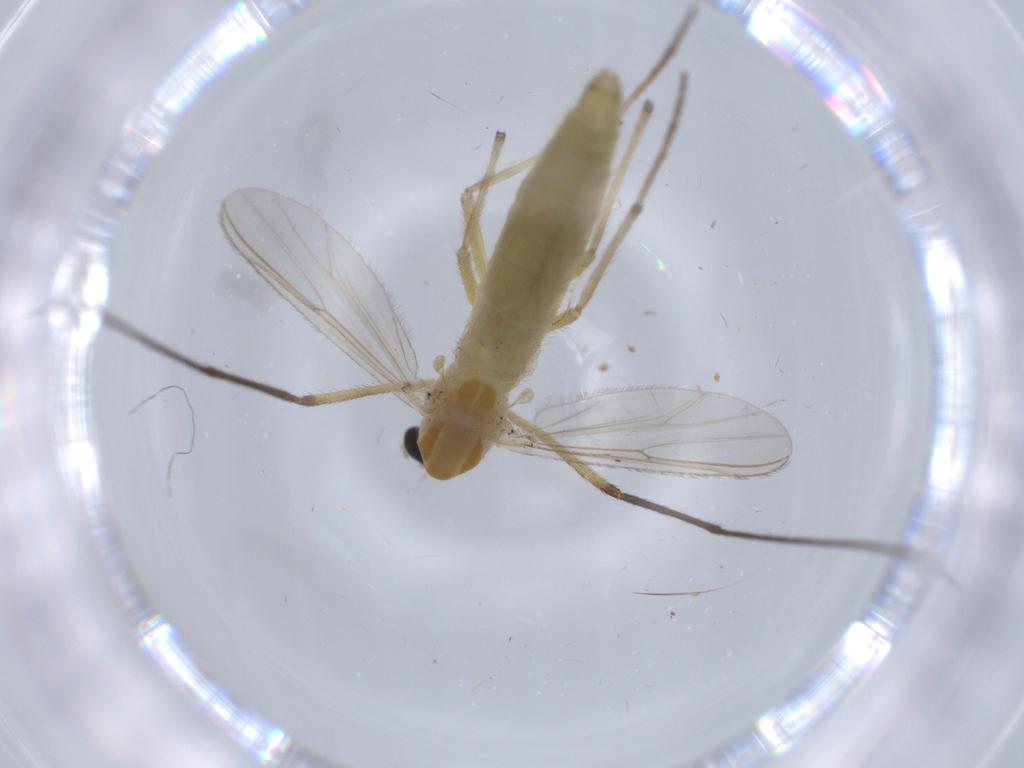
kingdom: Animalia
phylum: Arthropoda
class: Insecta
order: Diptera
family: Chironomidae
